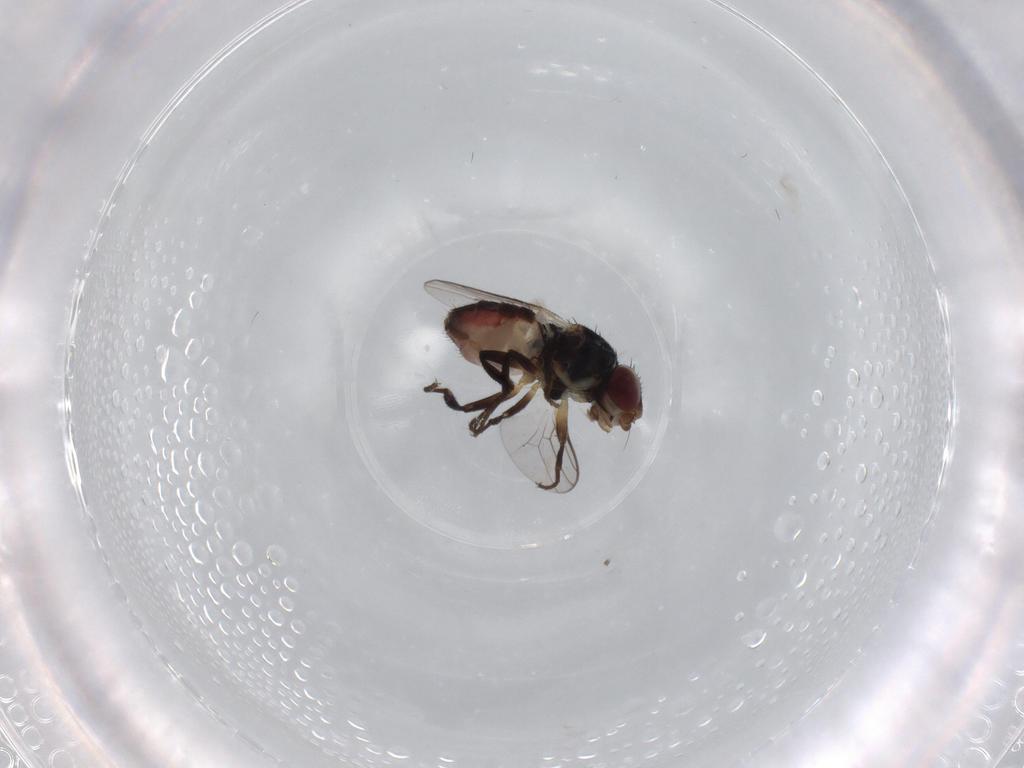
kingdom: Animalia
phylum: Arthropoda
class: Insecta
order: Diptera
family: Chloropidae
